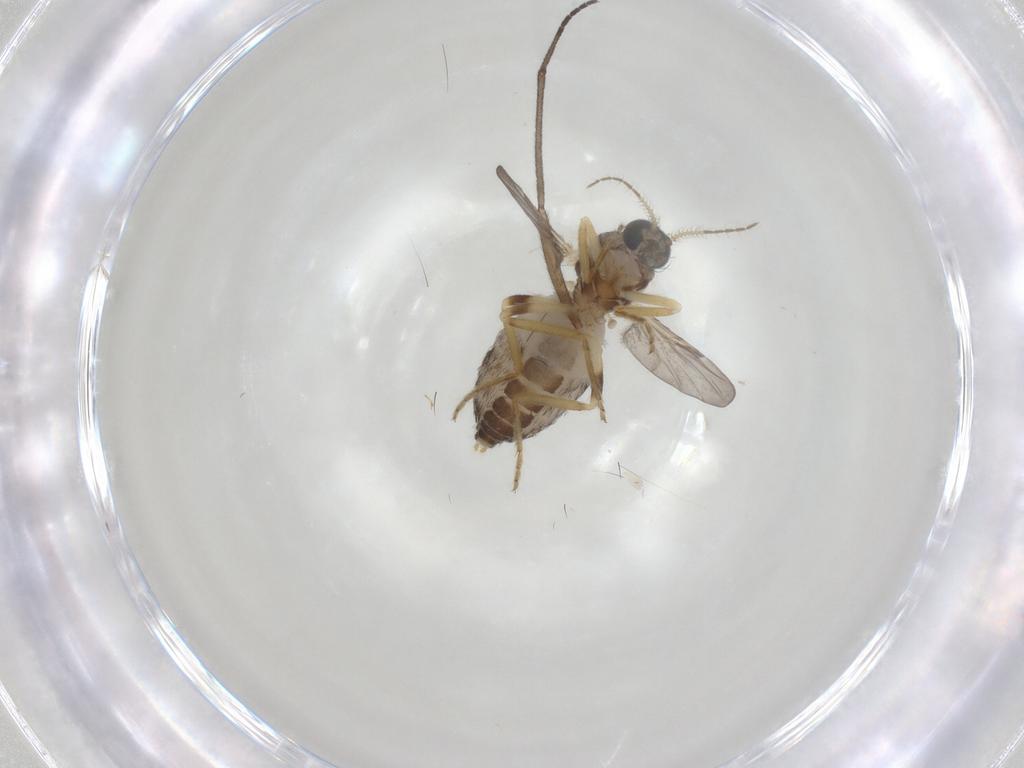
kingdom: Animalia
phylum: Arthropoda
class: Insecta
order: Diptera
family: Ceratopogonidae
